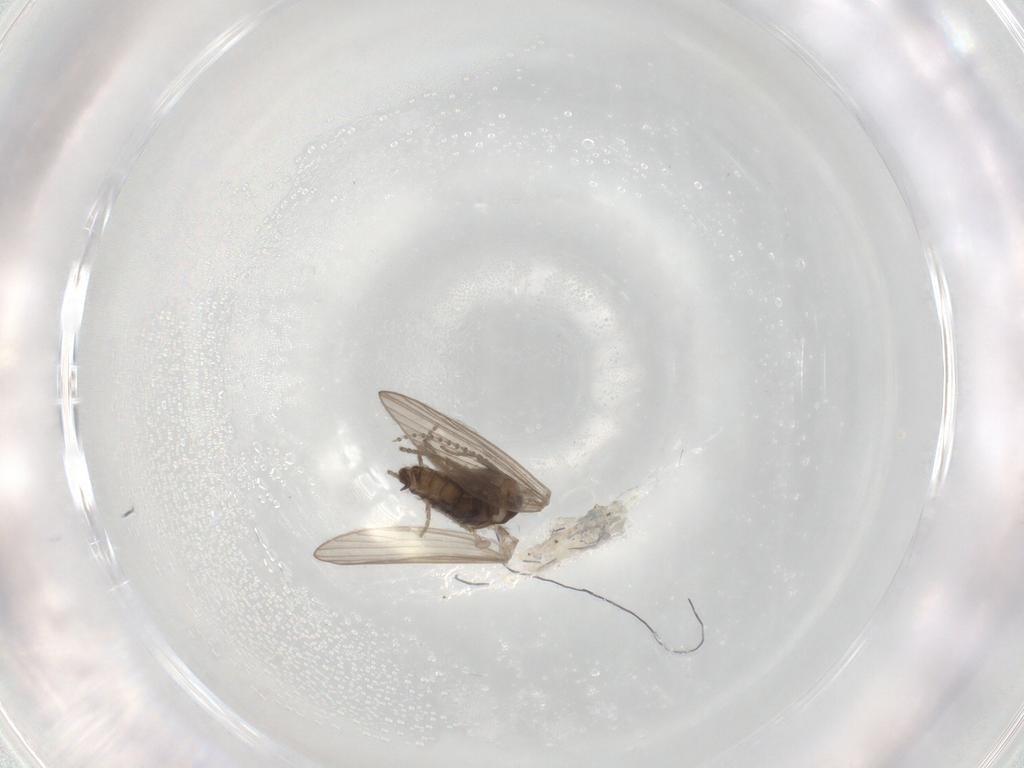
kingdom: Animalia
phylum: Arthropoda
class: Insecta
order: Diptera
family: Psychodidae
